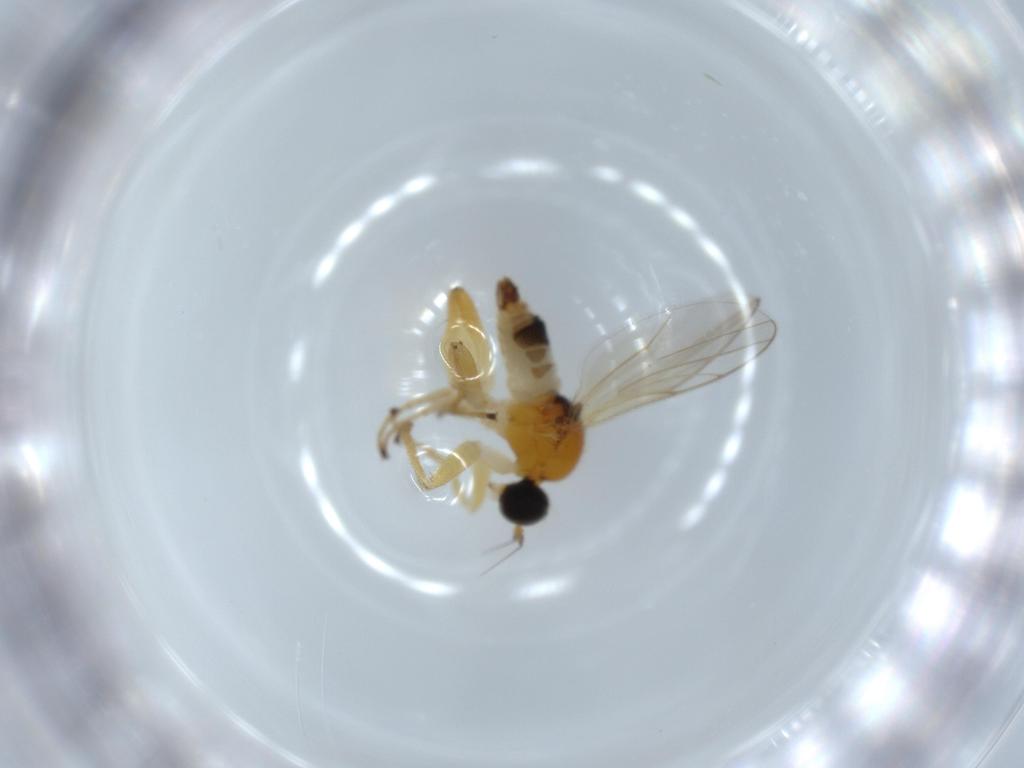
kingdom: Animalia
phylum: Arthropoda
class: Insecta
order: Diptera
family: Hybotidae
